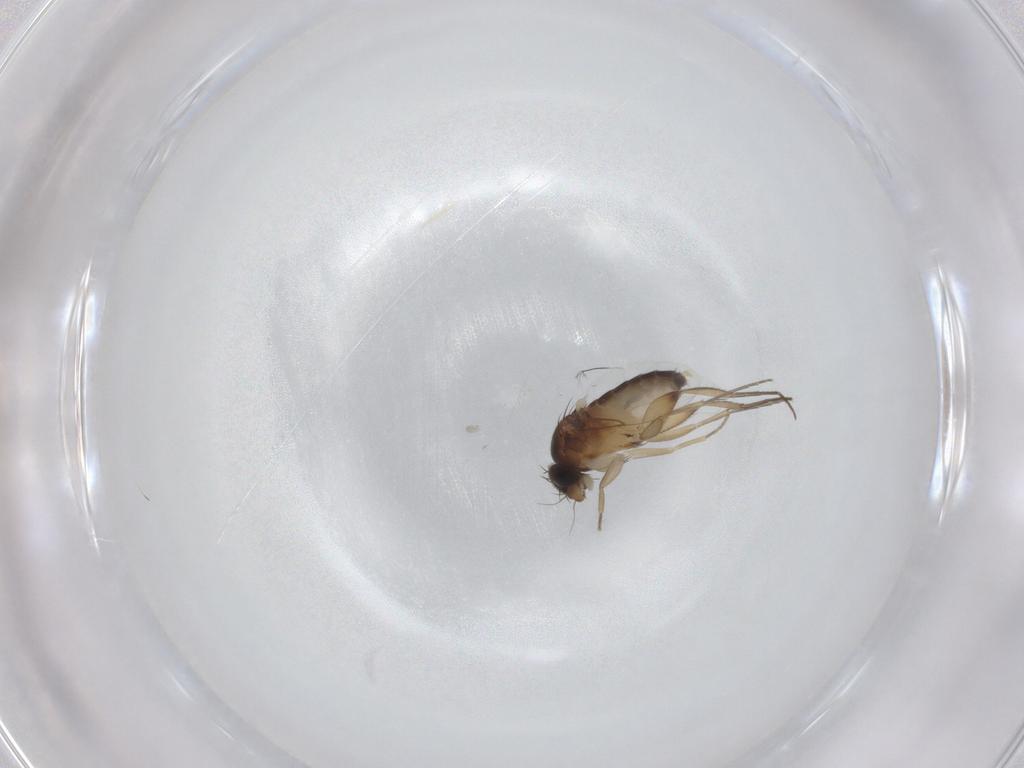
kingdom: Animalia
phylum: Arthropoda
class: Insecta
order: Diptera
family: Phoridae
